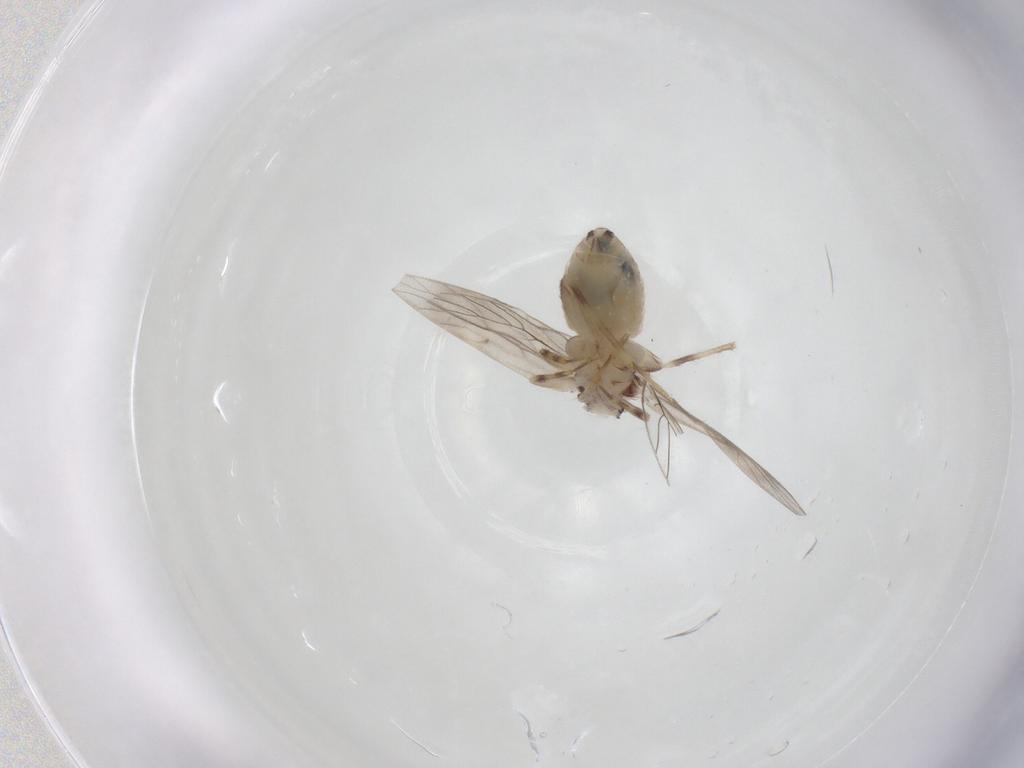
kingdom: Animalia
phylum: Arthropoda
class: Insecta
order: Psocodea
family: Lepidopsocidae
